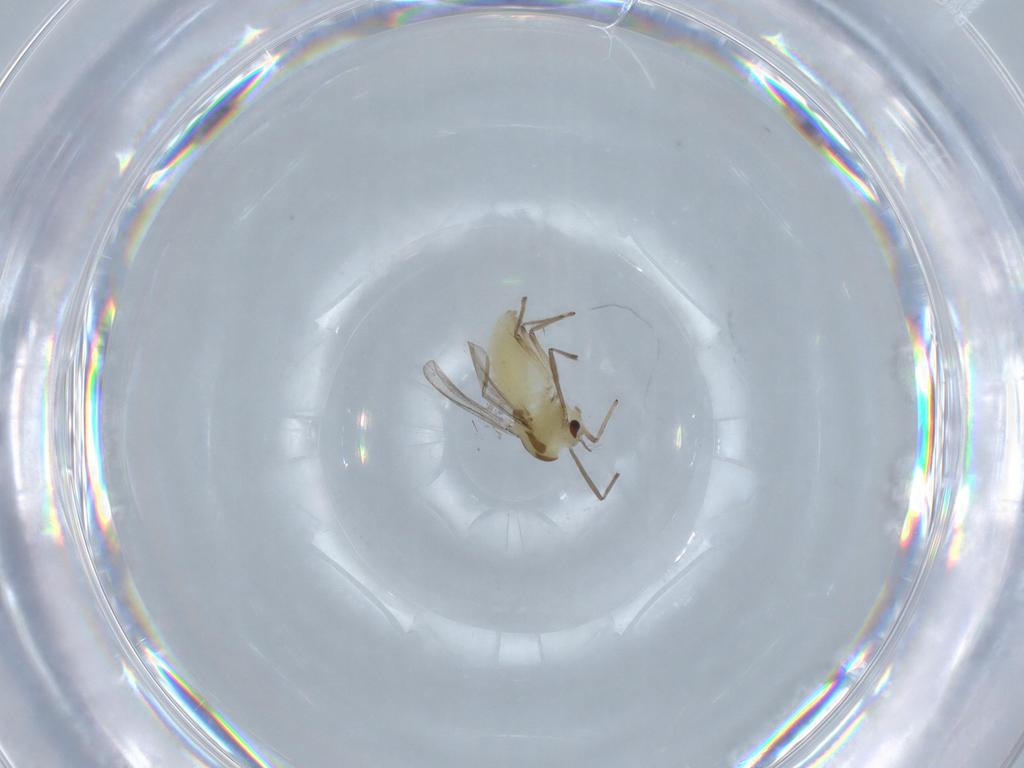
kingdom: Animalia
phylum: Arthropoda
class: Insecta
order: Diptera
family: Chironomidae
